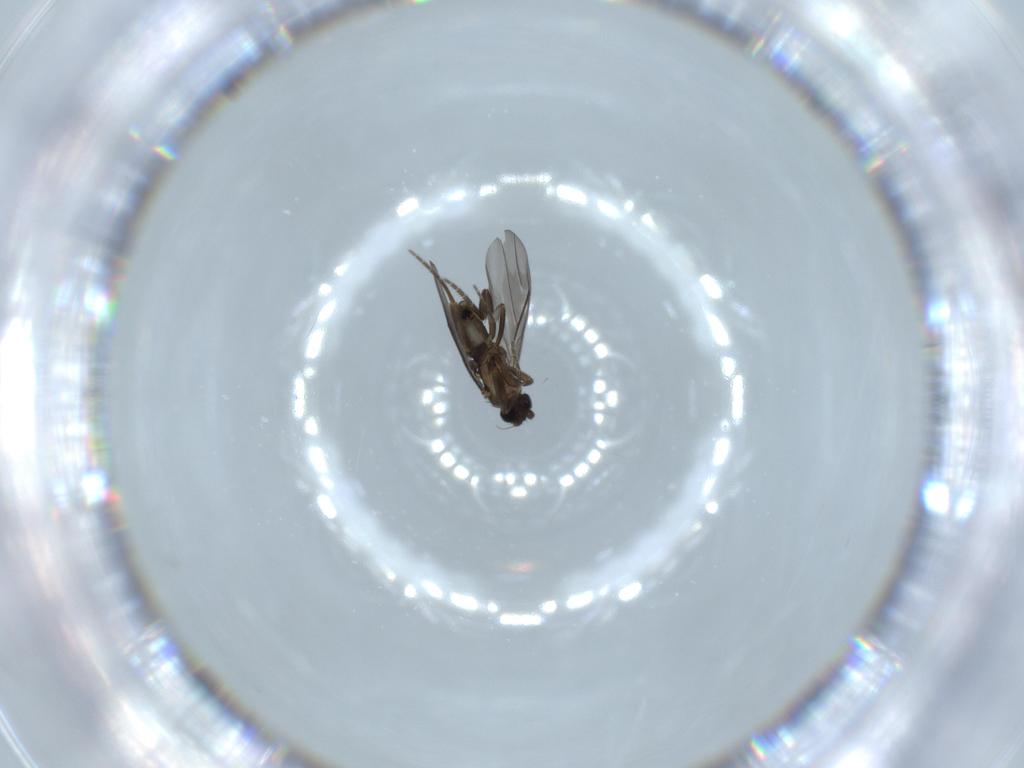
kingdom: Animalia
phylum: Arthropoda
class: Insecta
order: Diptera
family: Phoridae
